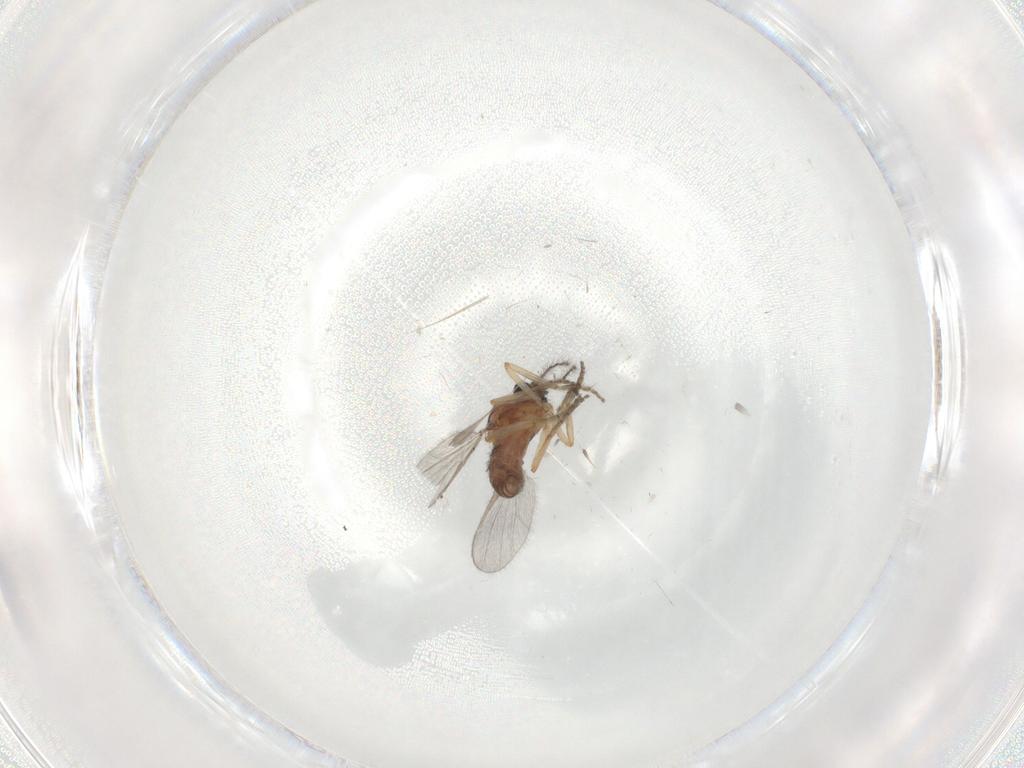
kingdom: Animalia
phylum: Arthropoda
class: Insecta
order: Diptera
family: Ceratopogonidae
